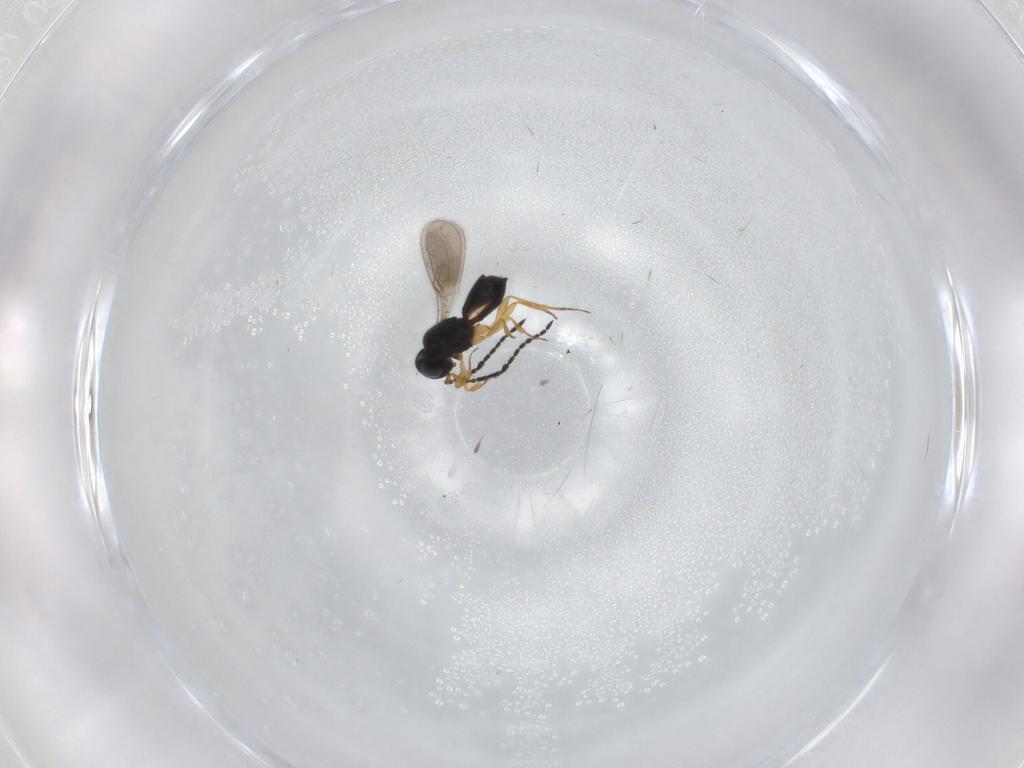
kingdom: Animalia
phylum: Arthropoda
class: Insecta
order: Hymenoptera
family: Scelionidae
